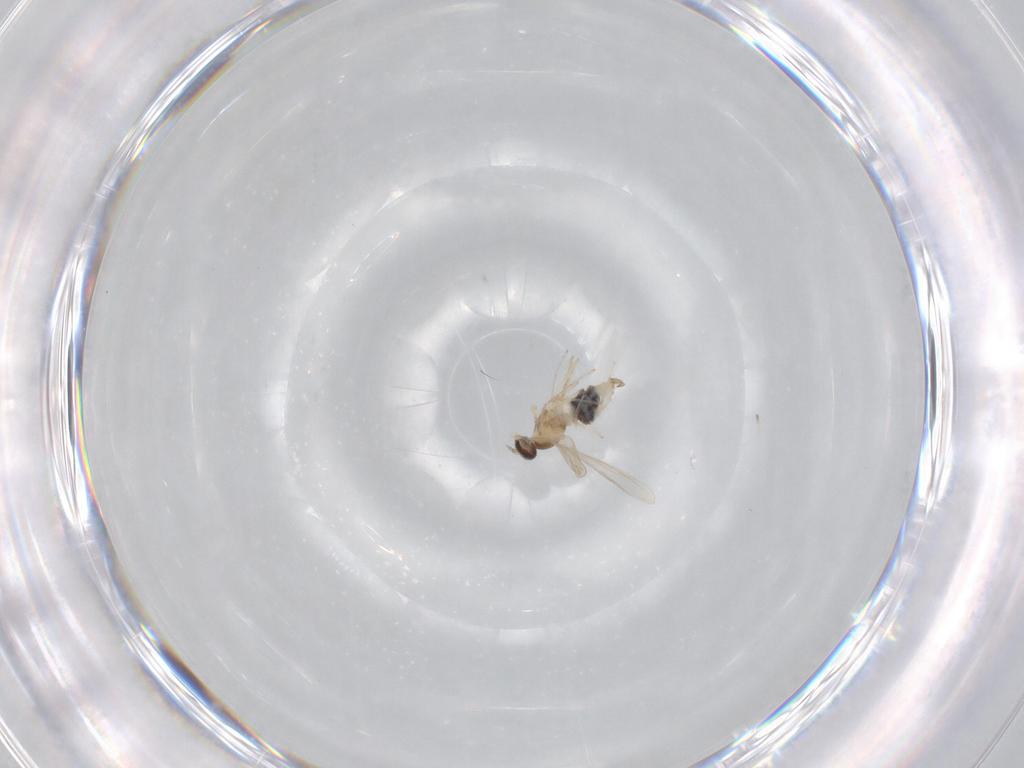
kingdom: Animalia
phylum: Arthropoda
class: Insecta
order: Diptera
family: Cecidomyiidae
